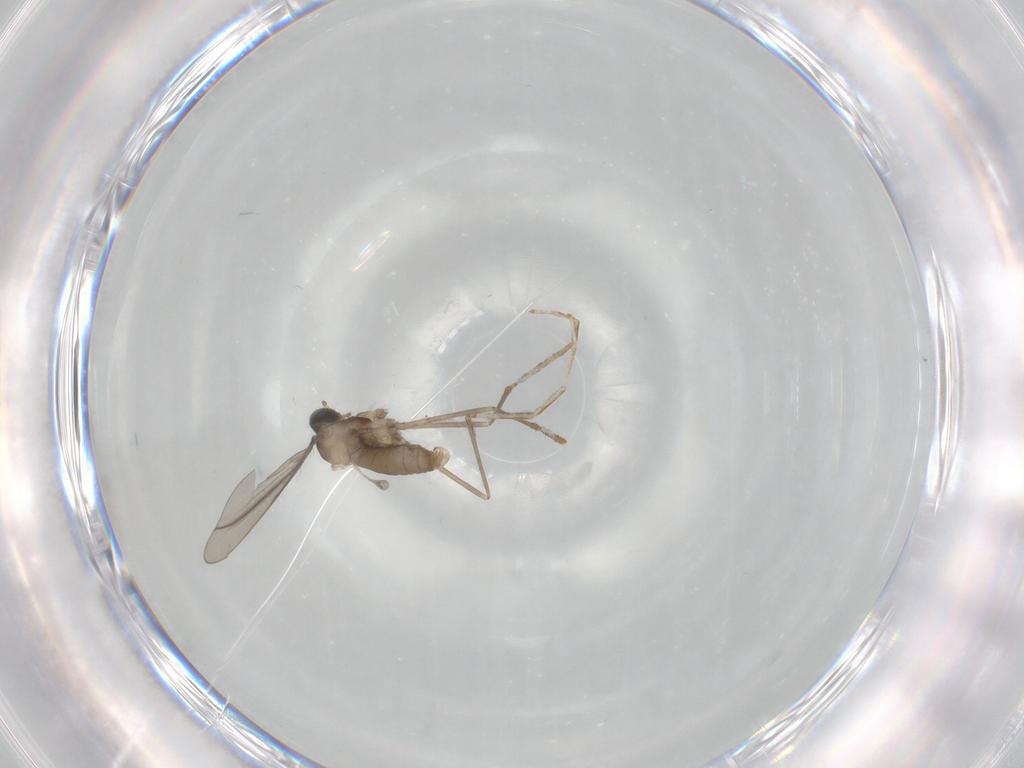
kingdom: Animalia
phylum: Arthropoda
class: Insecta
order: Diptera
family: Cecidomyiidae
